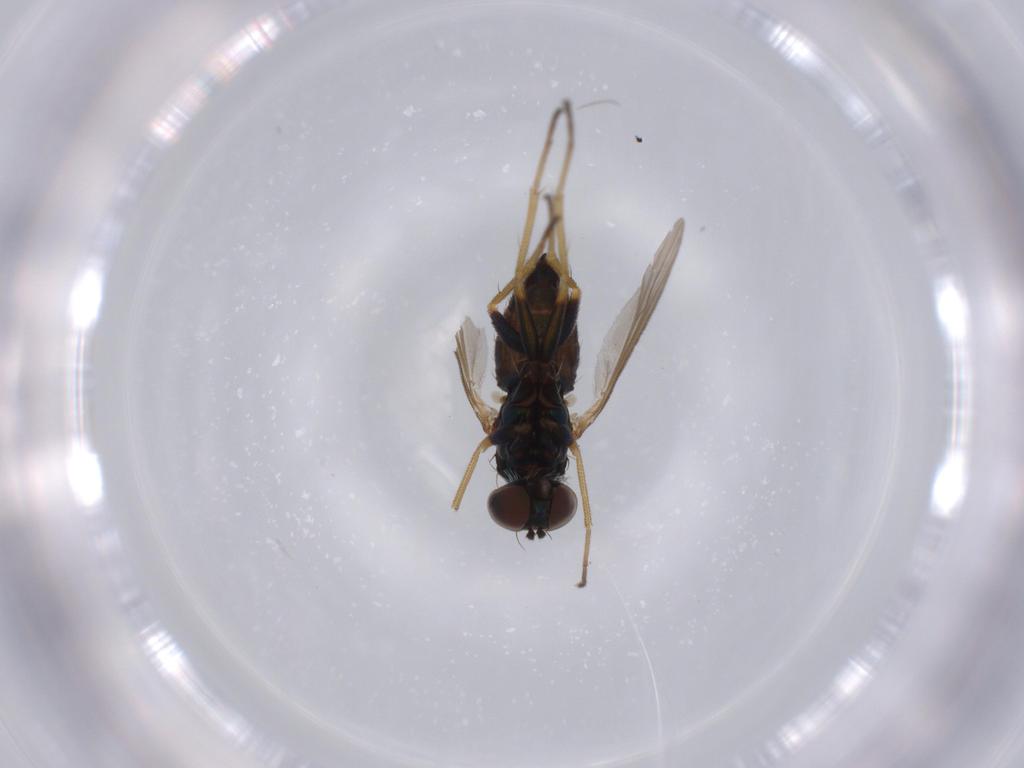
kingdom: Animalia
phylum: Arthropoda
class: Insecta
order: Diptera
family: Dolichopodidae
